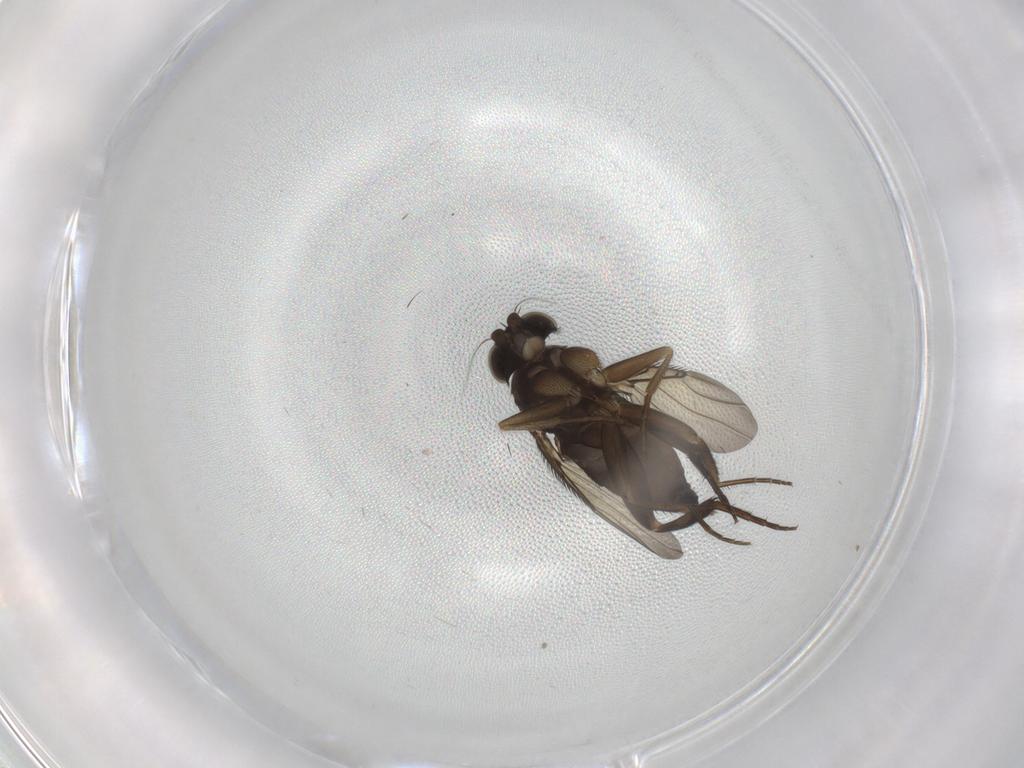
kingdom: Animalia
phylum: Arthropoda
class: Insecta
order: Diptera
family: Phoridae
